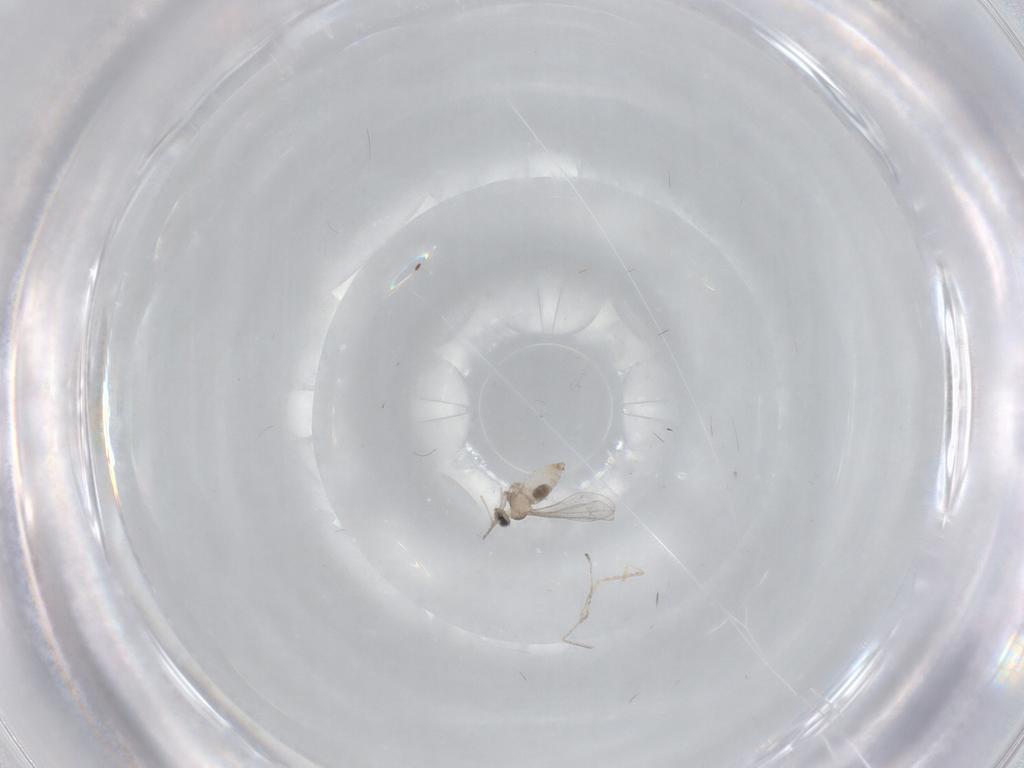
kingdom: Animalia
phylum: Arthropoda
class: Insecta
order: Diptera
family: Cecidomyiidae
